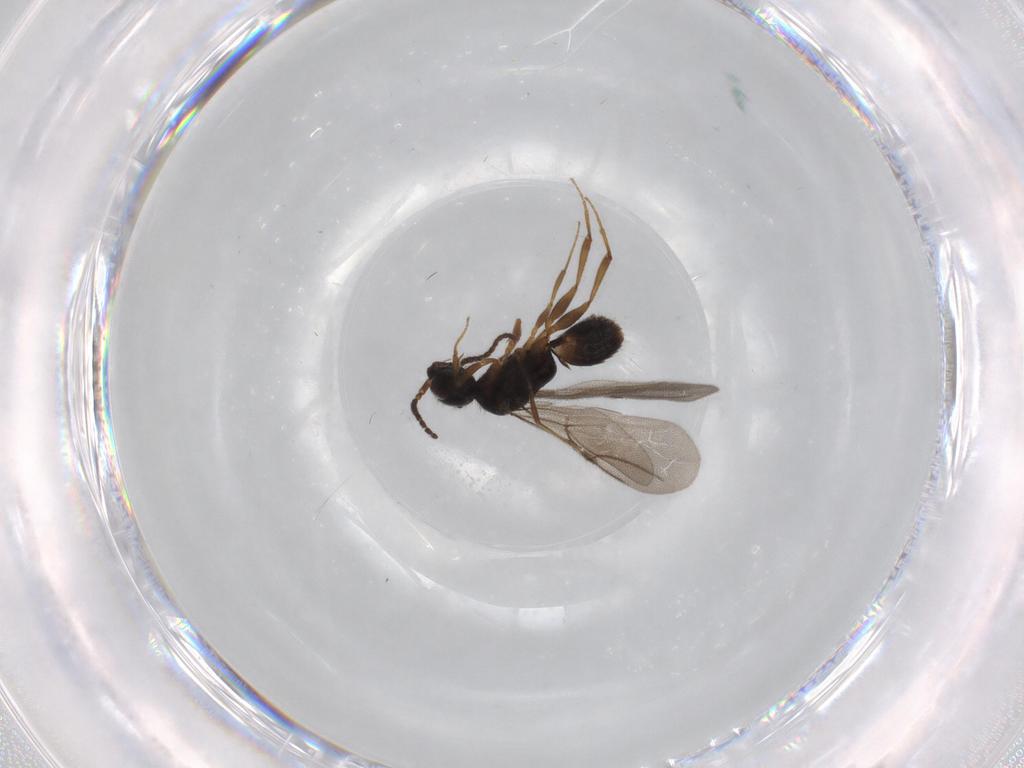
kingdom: Animalia
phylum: Arthropoda
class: Insecta
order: Hymenoptera
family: Bethylidae
